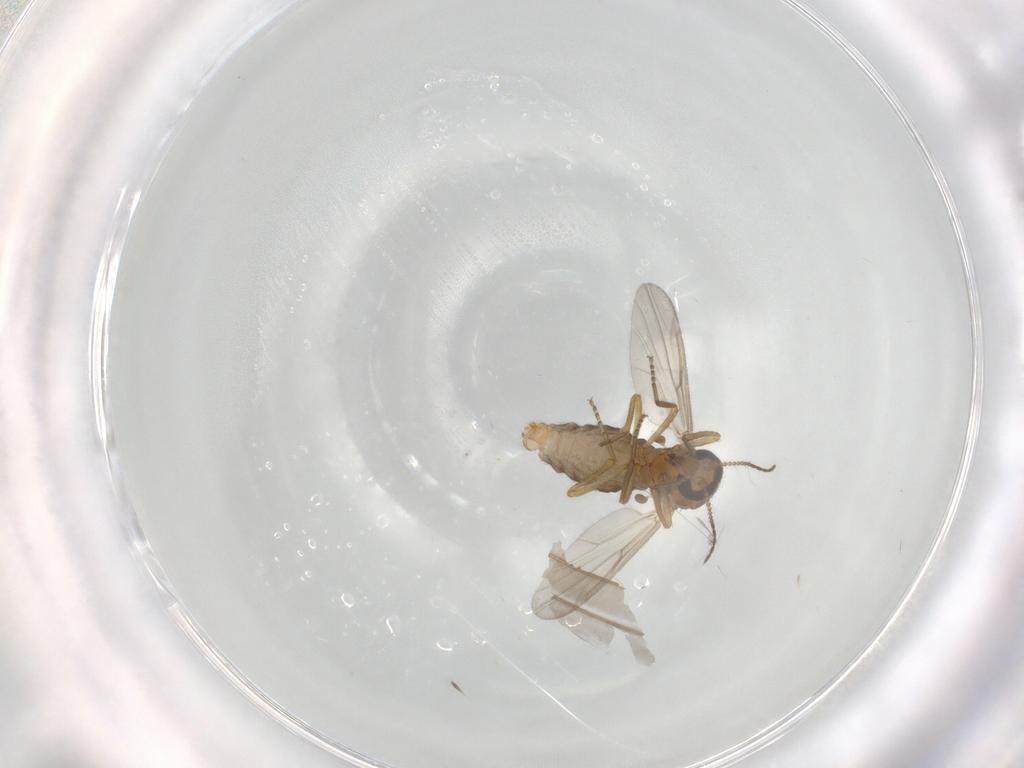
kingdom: Animalia
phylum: Arthropoda
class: Insecta
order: Diptera
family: Ceratopogonidae
